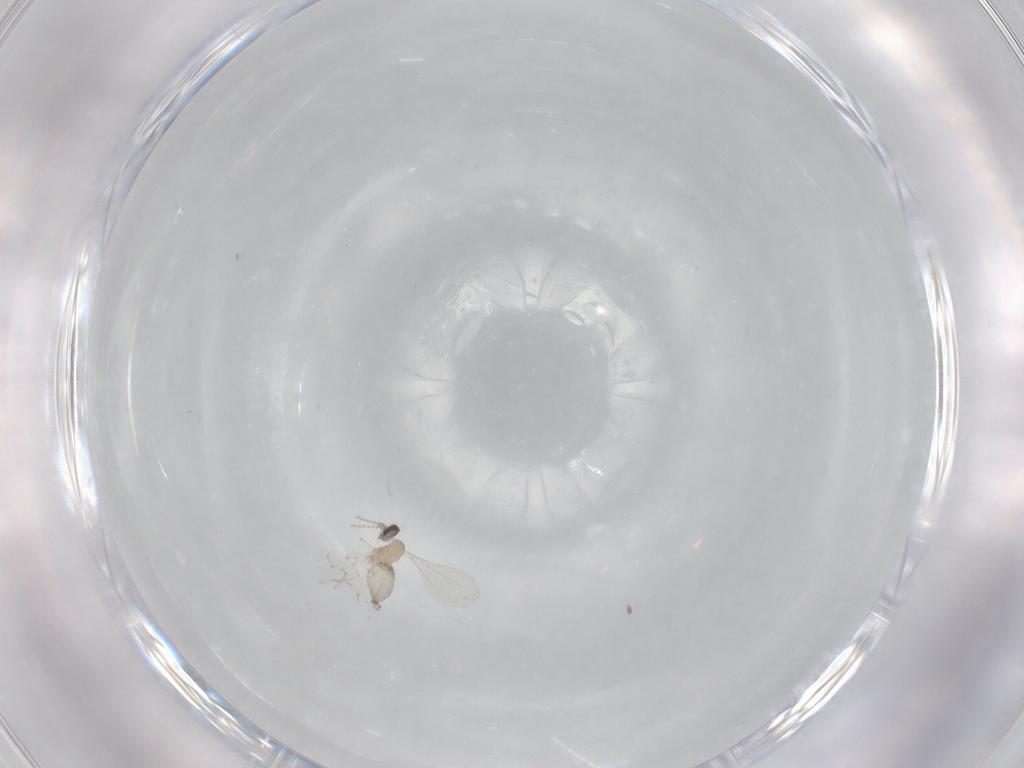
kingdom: Animalia
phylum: Arthropoda
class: Insecta
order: Diptera
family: Cecidomyiidae
